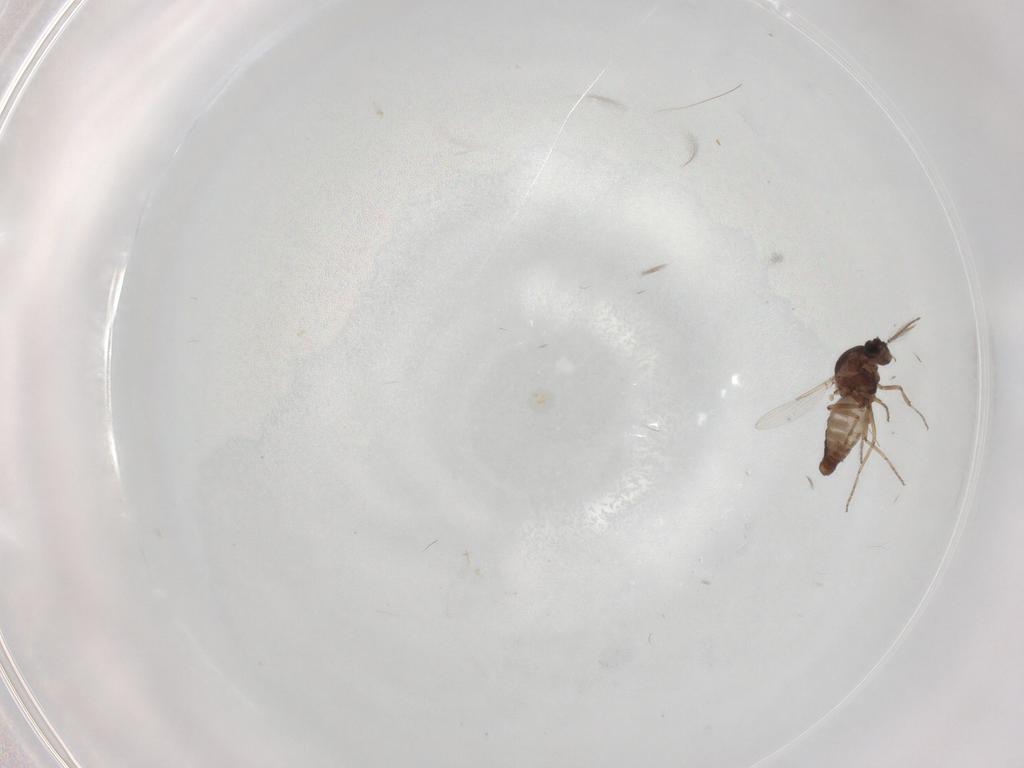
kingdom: Animalia
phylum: Arthropoda
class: Insecta
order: Diptera
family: Ceratopogonidae
